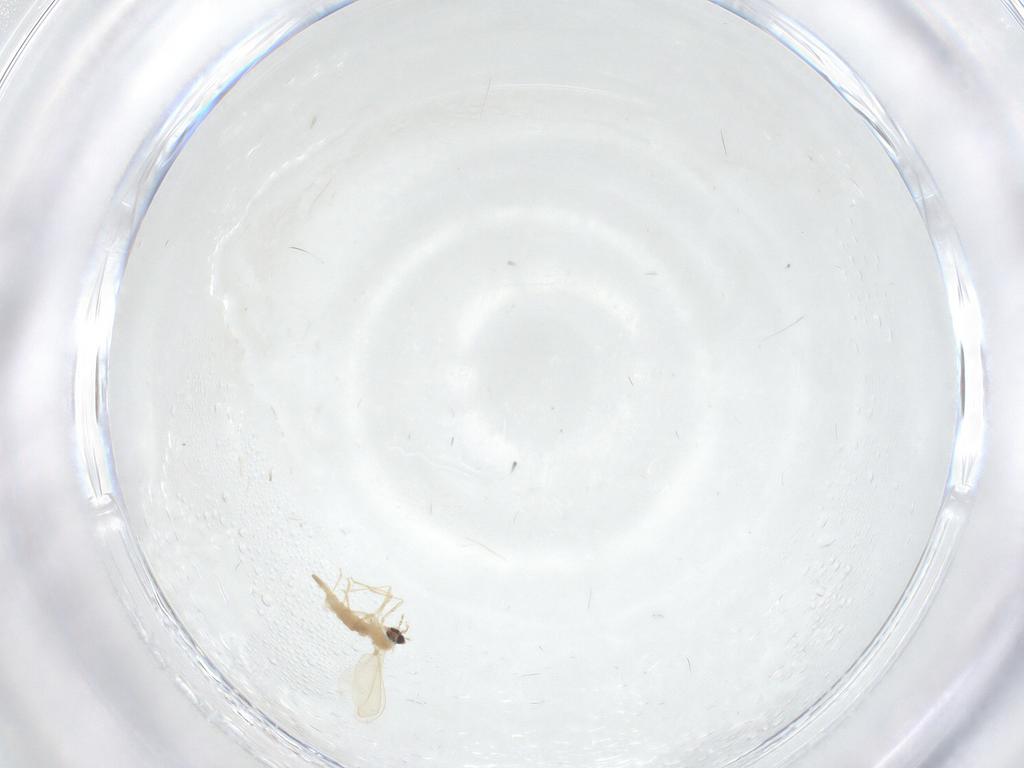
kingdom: Animalia
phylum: Arthropoda
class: Insecta
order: Diptera
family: Cecidomyiidae
